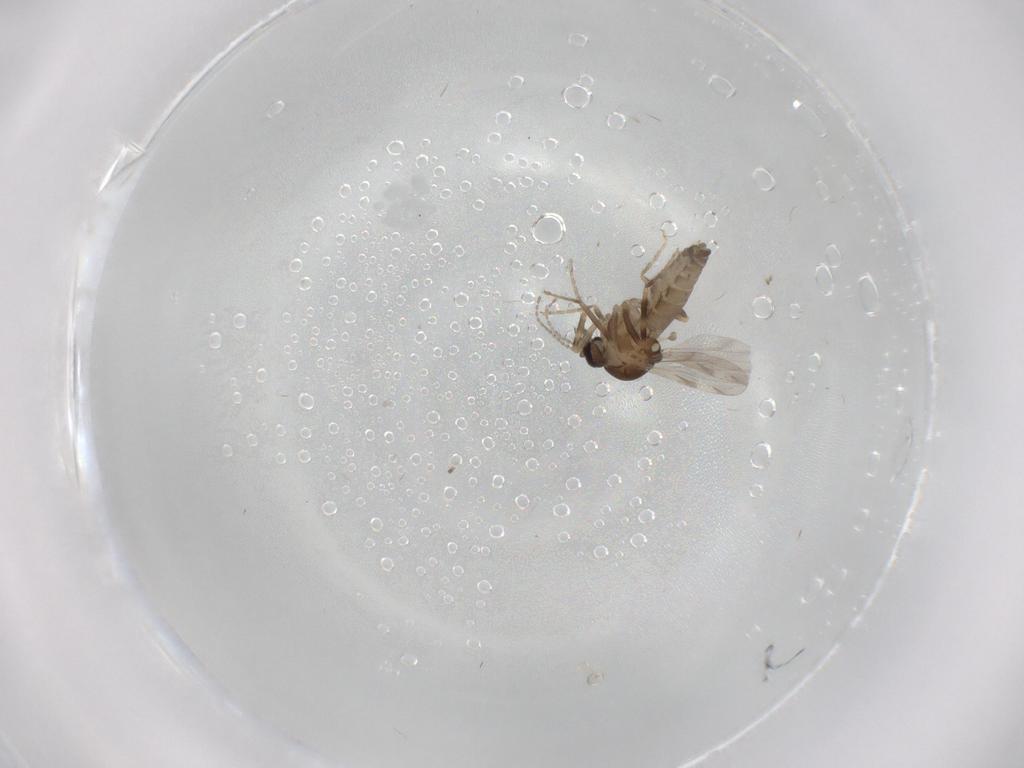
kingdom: Animalia
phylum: Arthropoda
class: Insecta
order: Diptera
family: Ceratopogonidae
